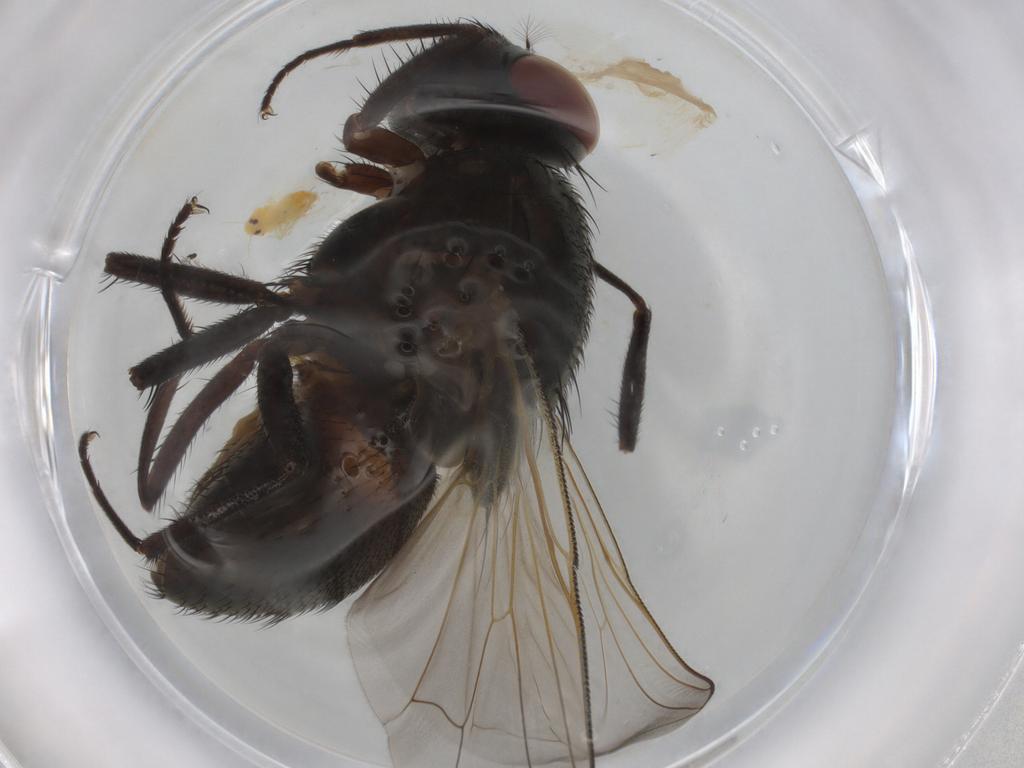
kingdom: Animalia
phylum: Arthropoda
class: Insecta
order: Diptera
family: Muscidae
